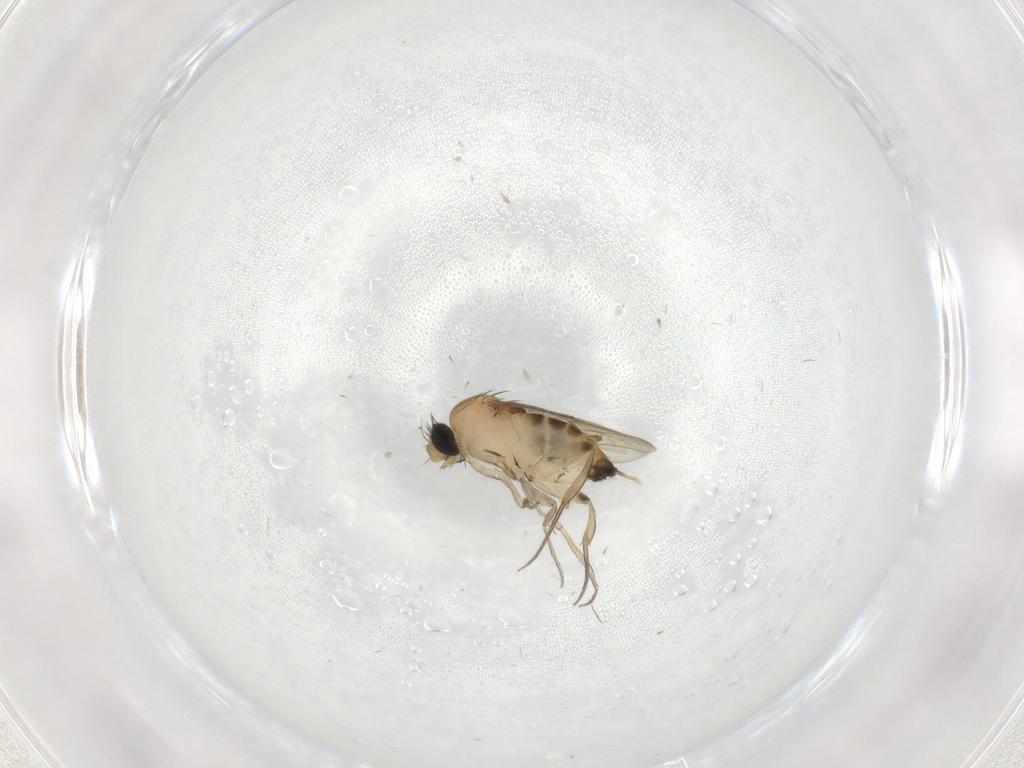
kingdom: Animalia
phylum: Arthropoda
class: Insecta
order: Diptera
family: Phoridae
